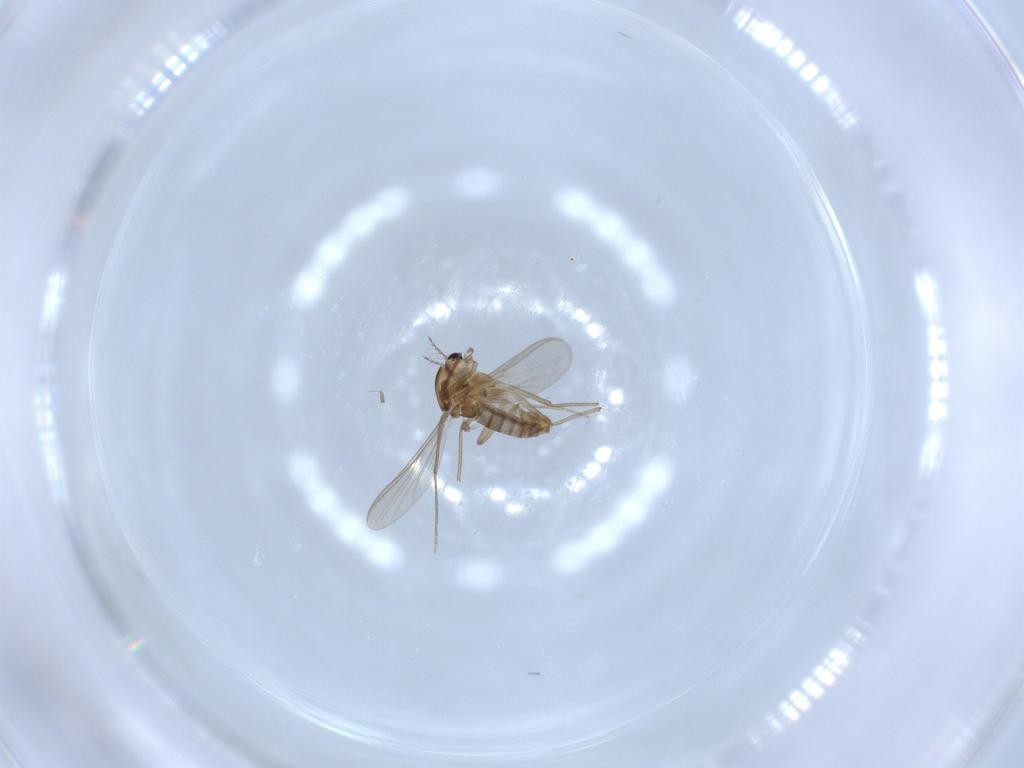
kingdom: Animalia
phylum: Arthropoda
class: Insecta
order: Diptera
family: Chironomidae
